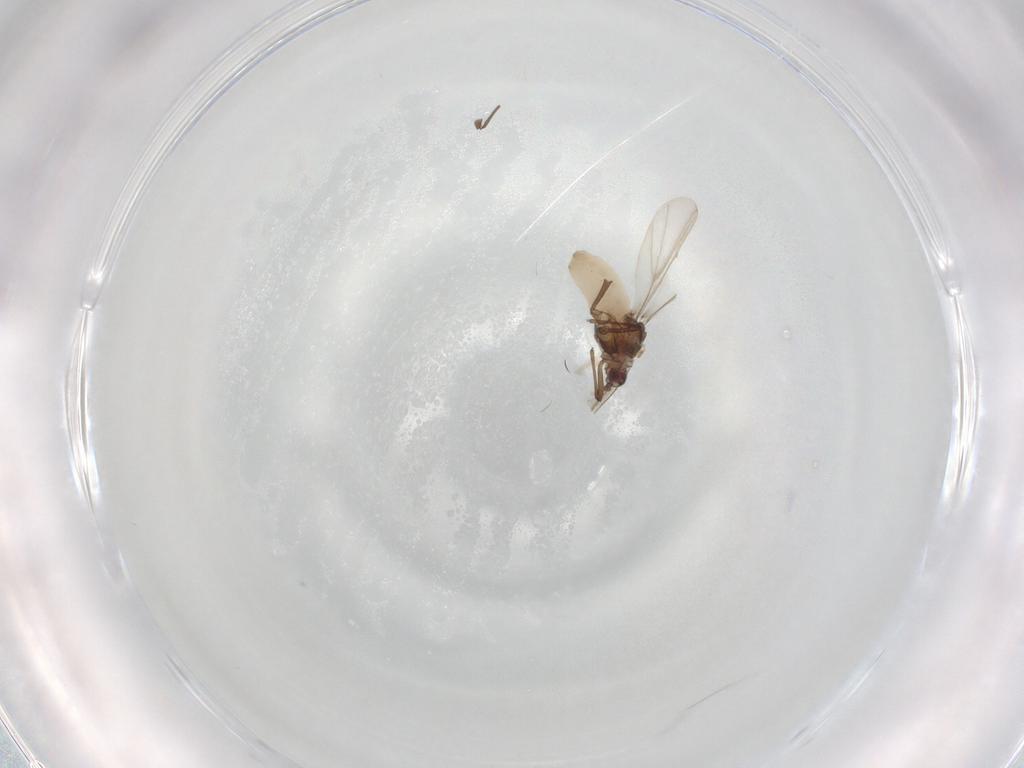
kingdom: Animalia
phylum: Arthropoda
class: Insecta
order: Hemiptera
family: Aphididae
